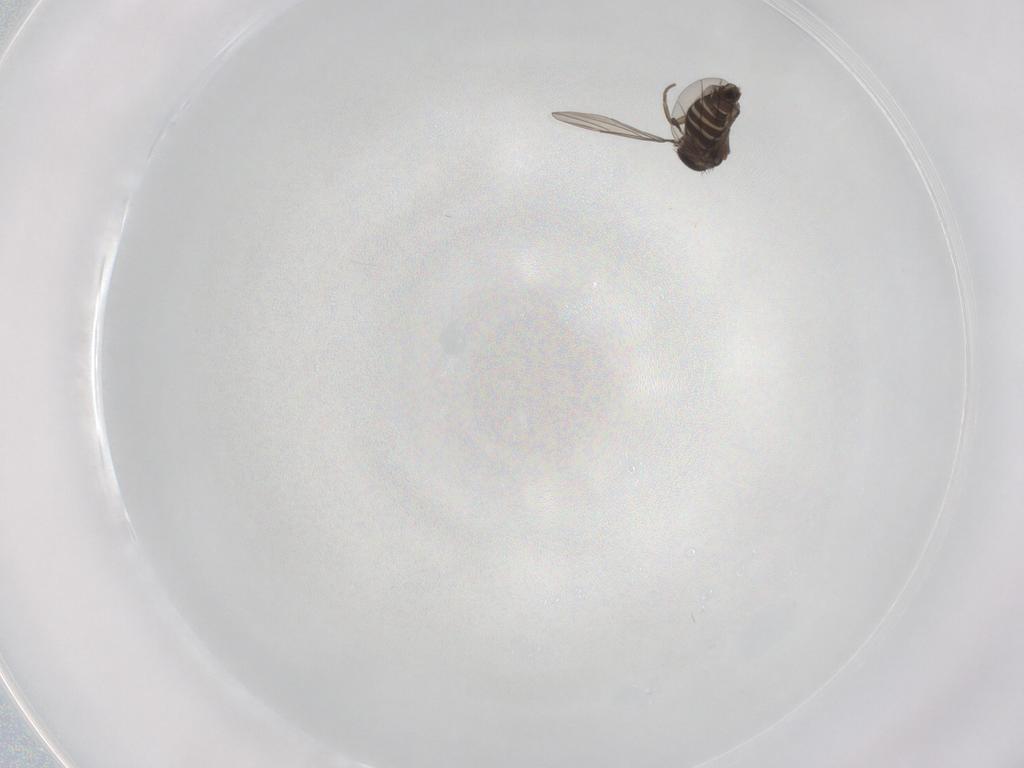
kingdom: Animalia
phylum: Arthropoda
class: Insecta
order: Diptera
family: Phoridae
